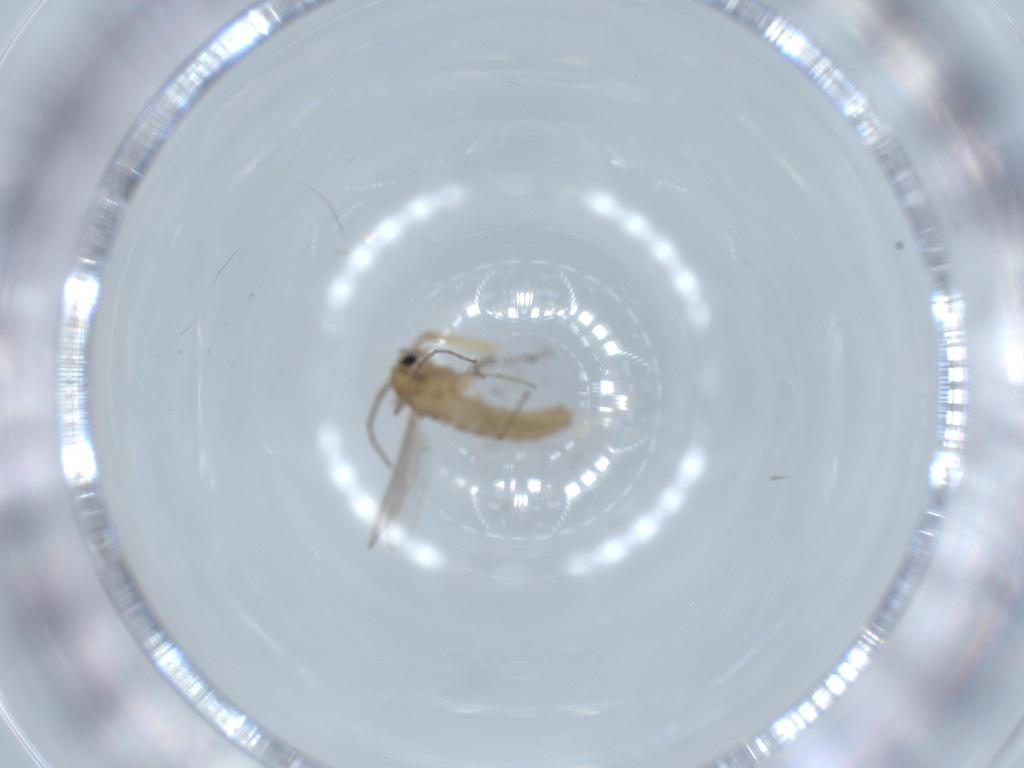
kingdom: Animalia
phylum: Arthropoda
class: Insecta
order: Diptera
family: Chironomidae
